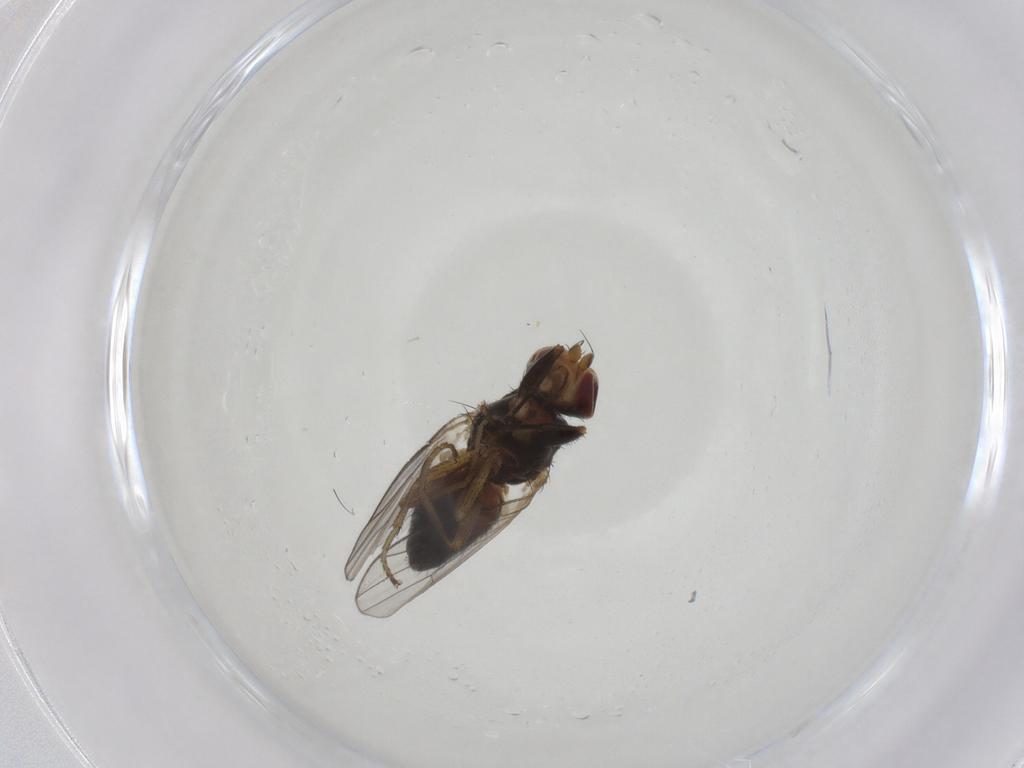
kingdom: Animalia
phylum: Arthropoda
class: Insecta
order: Diptera
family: Heleomyzidae
